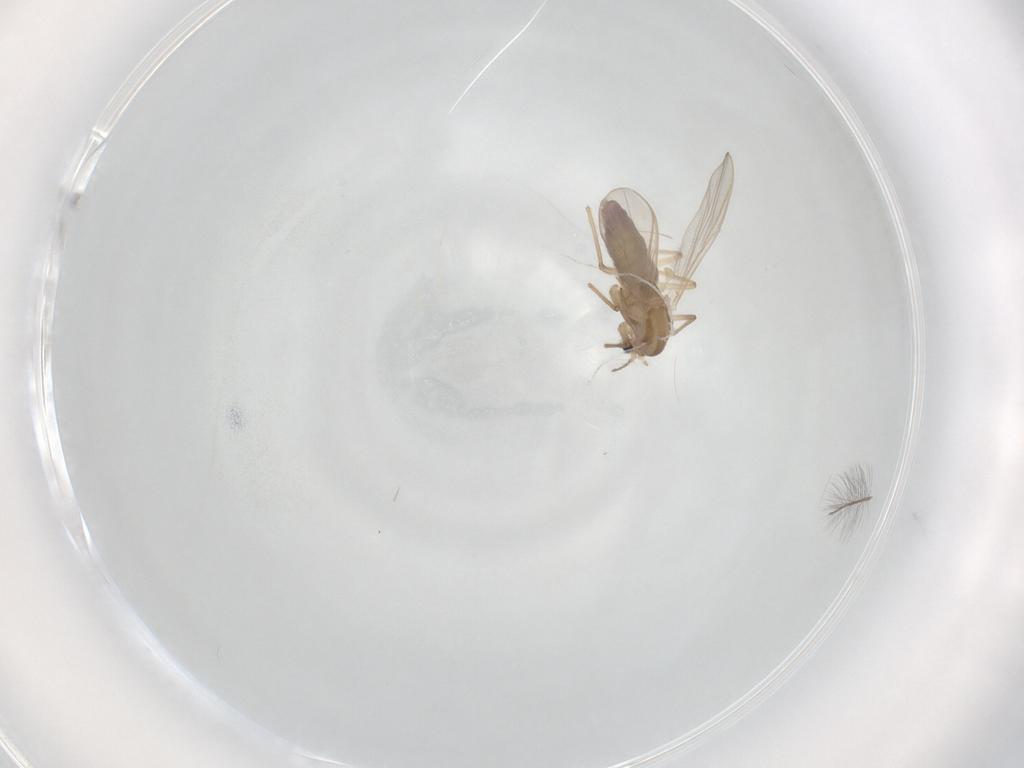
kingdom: Animalia
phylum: Arthropoda
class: Insecta
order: Diptera
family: Chironomidae
